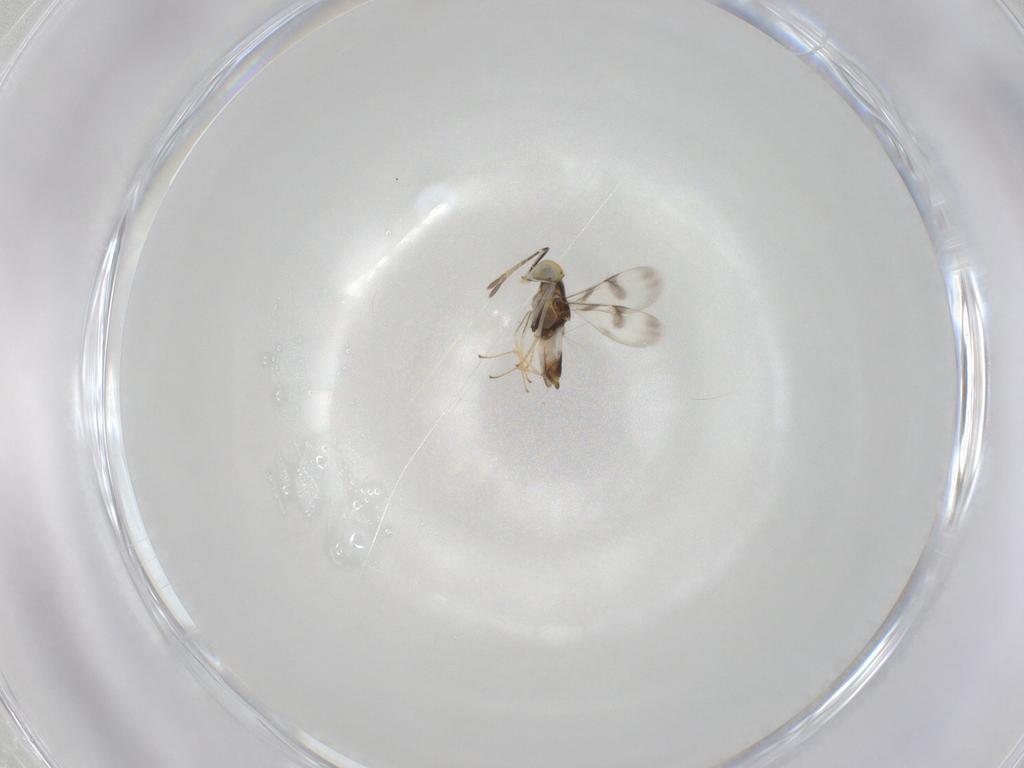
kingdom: Animalia
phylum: Arthropoda
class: Insecta
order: Hymenoptera
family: Encyrtidae
